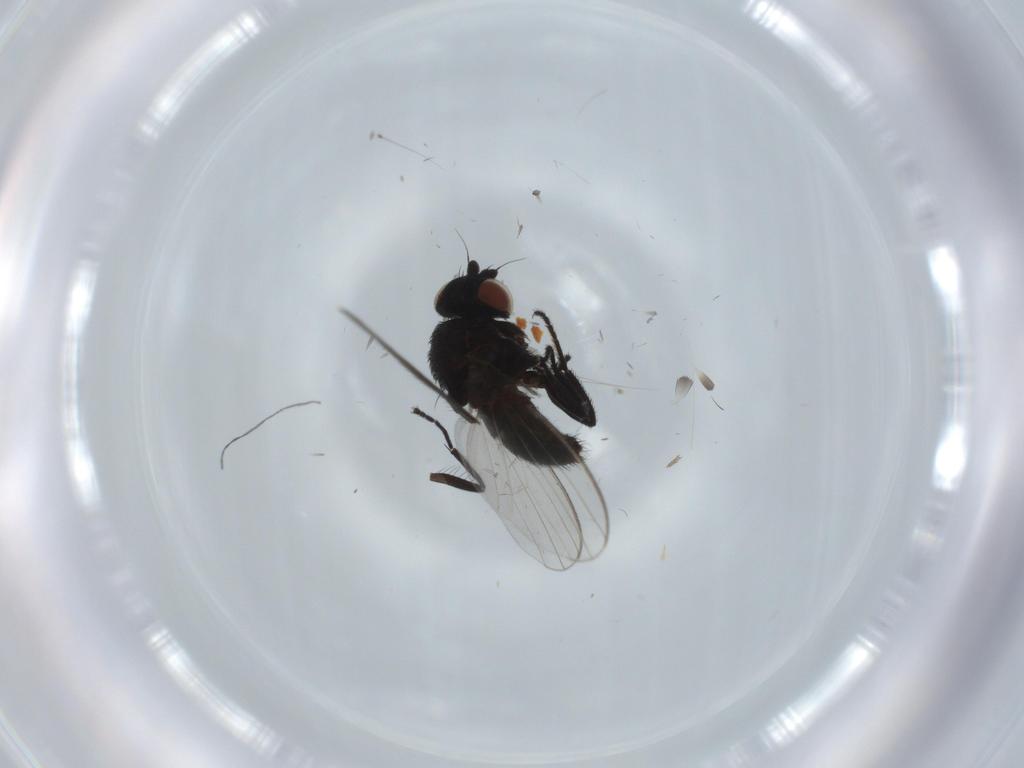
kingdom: Animalia
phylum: Arthropoda
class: Insecta
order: Diptera
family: Milichiidae
